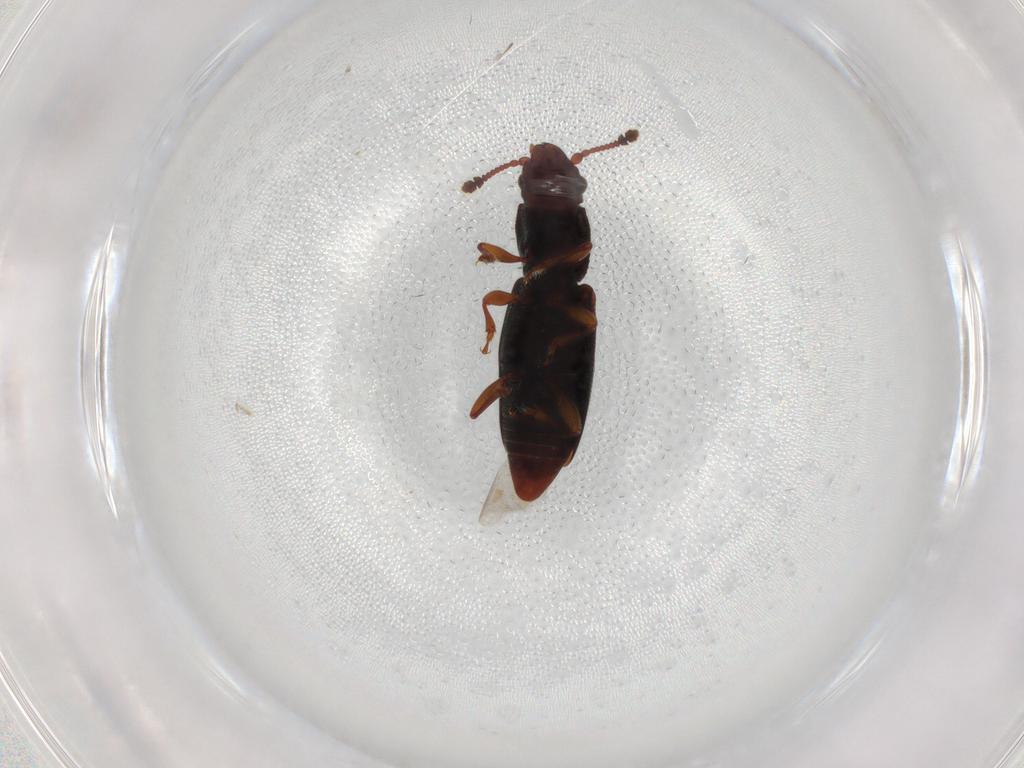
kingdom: Animalia
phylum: Arthropoda
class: Insecta
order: Coleoptera
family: Monotomidae
